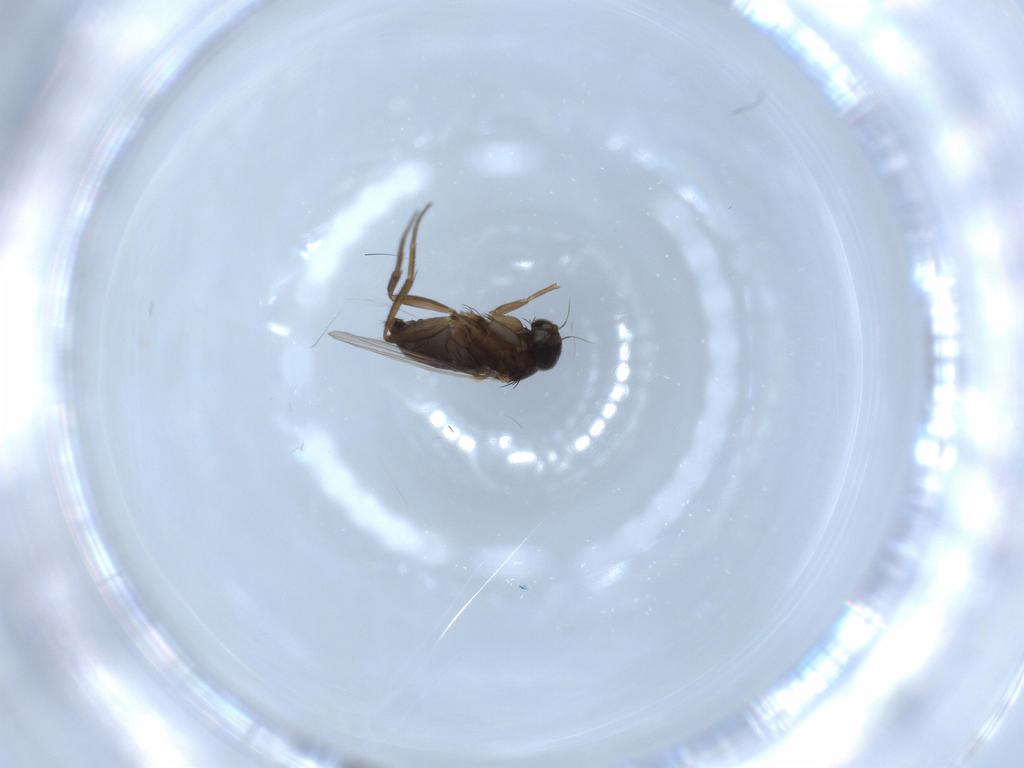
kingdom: Animalia
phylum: Arthropoda
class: Insecta
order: Diptera
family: Phoridae
